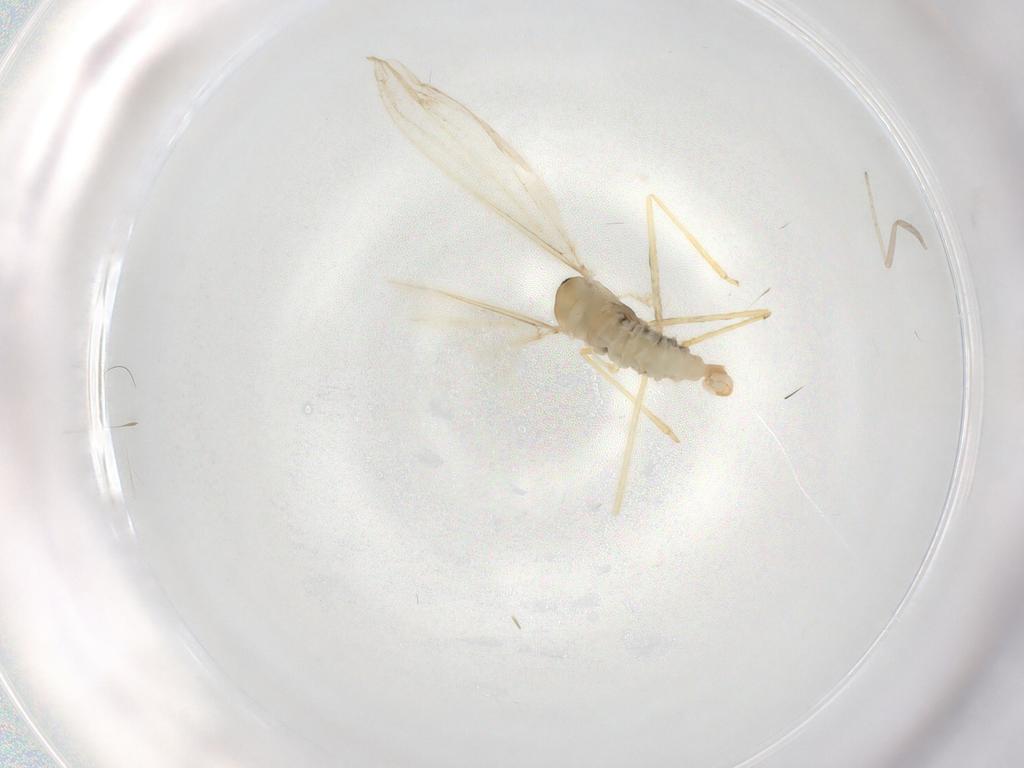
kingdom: Animalia
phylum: Arthropoda
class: Insecta
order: Diptera
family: Cecidomyiidae
